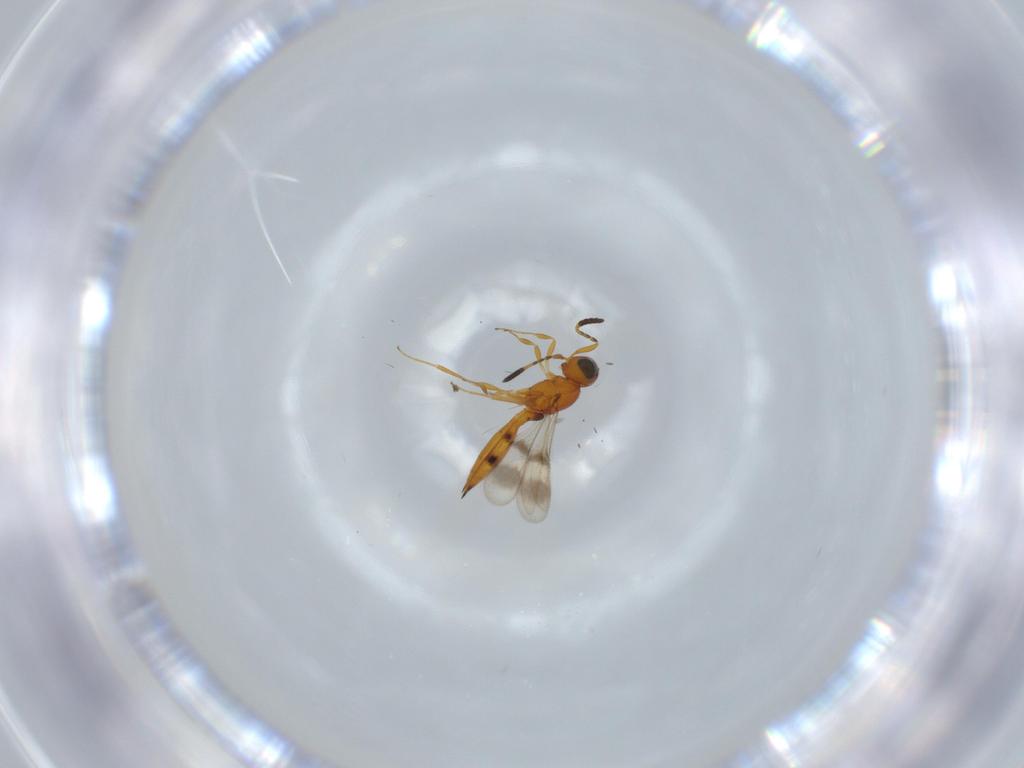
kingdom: Animalia
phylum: Arthropoda
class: Insecta
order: Hymenoptera
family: Scelionidae
